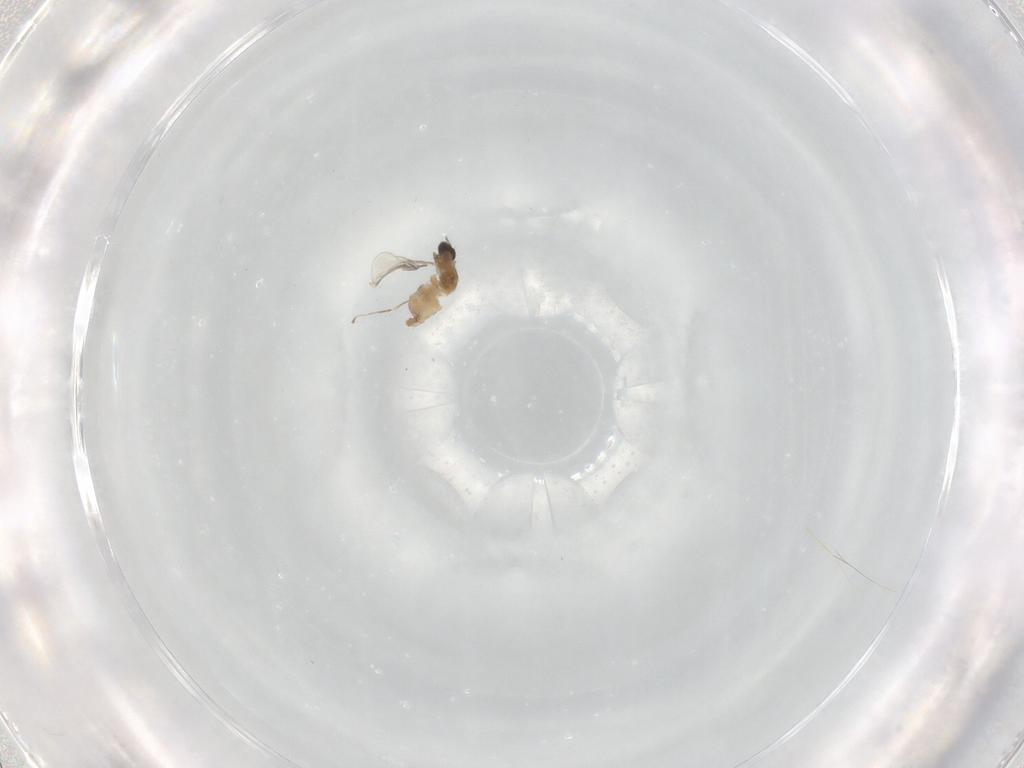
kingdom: Animalia
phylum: Arthropoda
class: Insecta
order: Diptera
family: Cecidomyiidae
